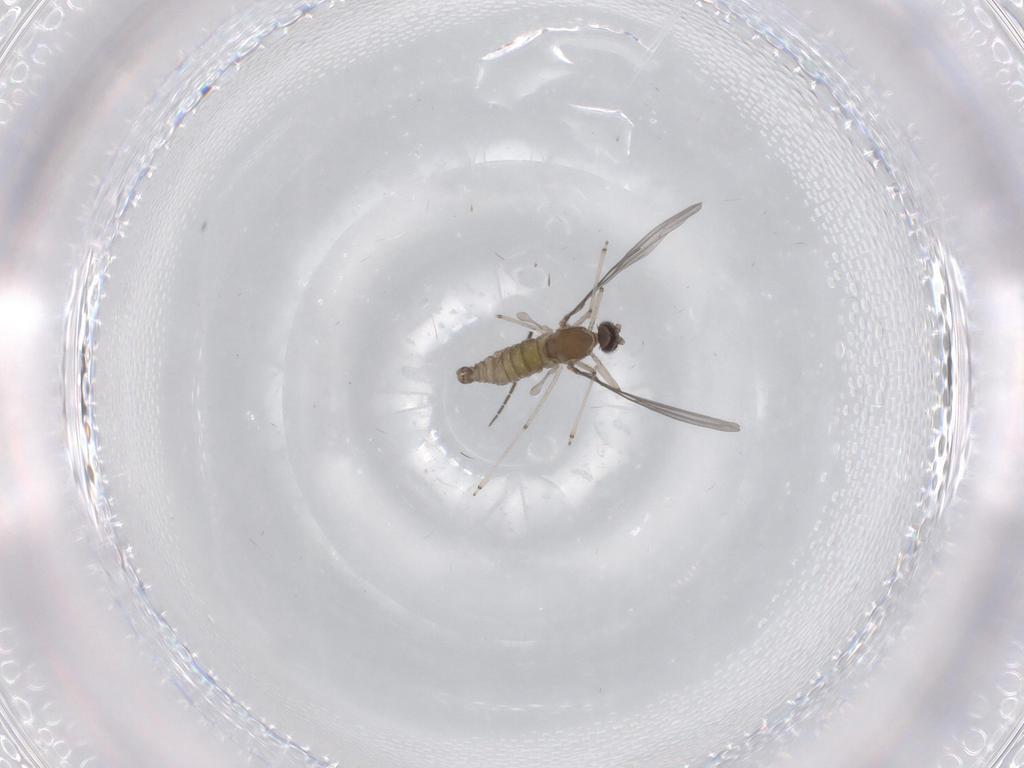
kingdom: Animalia
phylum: Arthropoda
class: Insecta
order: Diptera
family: Sciaridae
